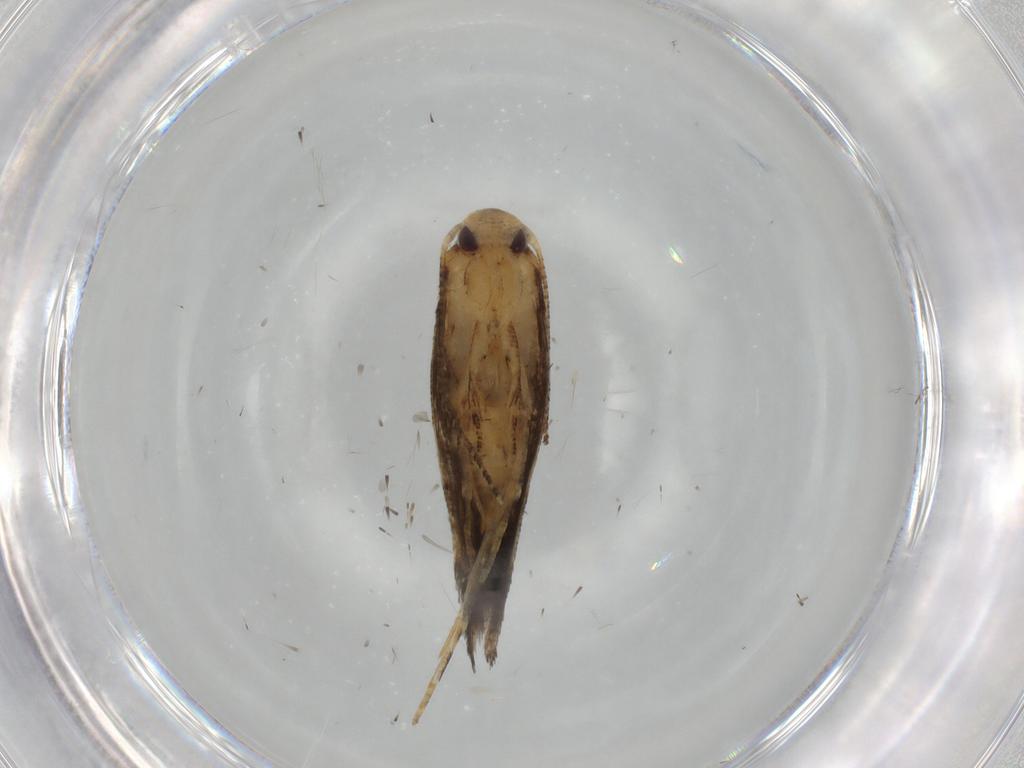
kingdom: Animalia
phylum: Arthropoda
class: Insecta
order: Lepidoptera
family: Momphidae
